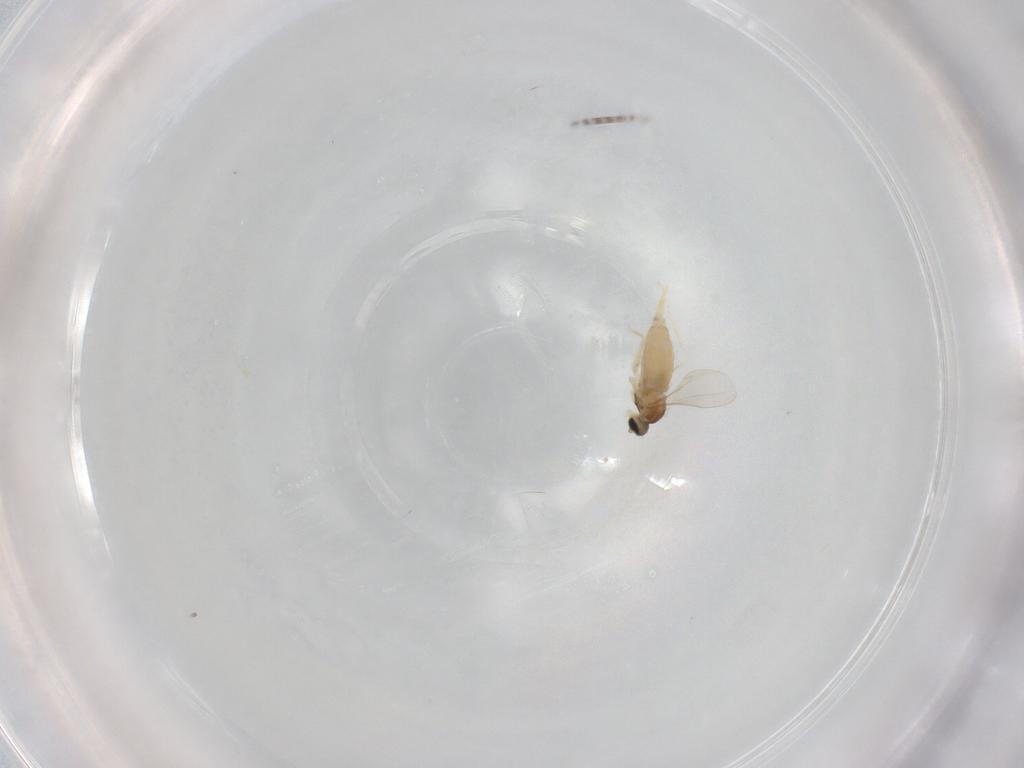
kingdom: Animalia
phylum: Arthropoda
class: Insecta
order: Diptera
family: Cecidomyiidae
